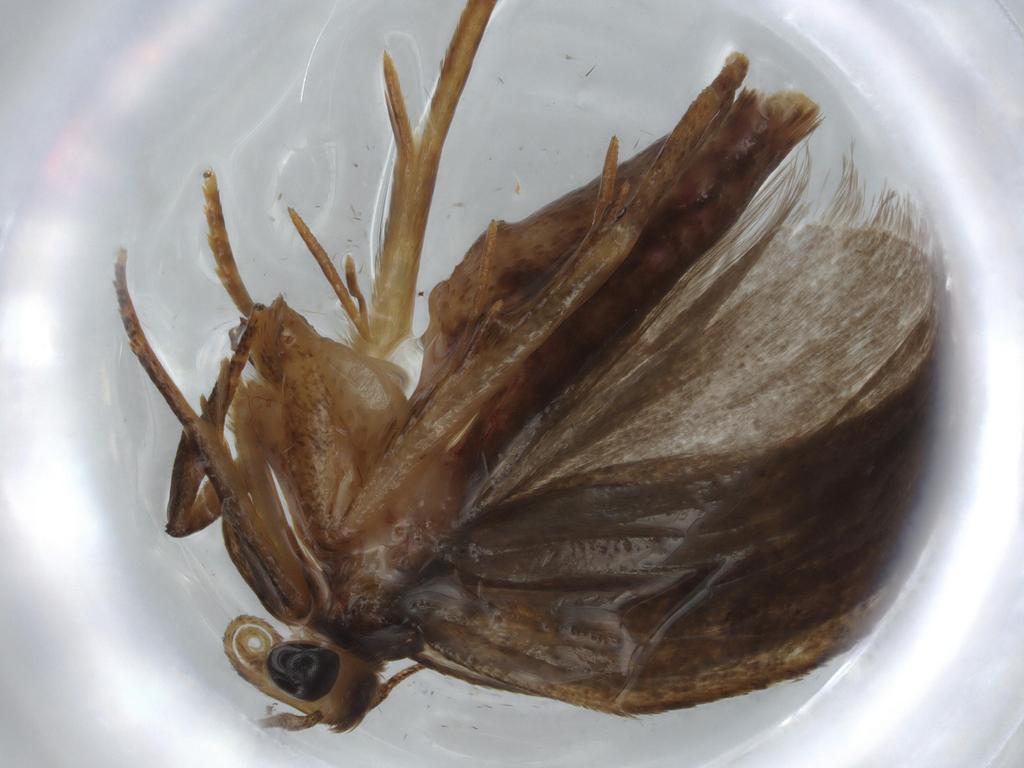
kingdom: Animalia
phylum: Arthropoda
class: Insecta
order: Lepidoptera
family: Autostichidae
